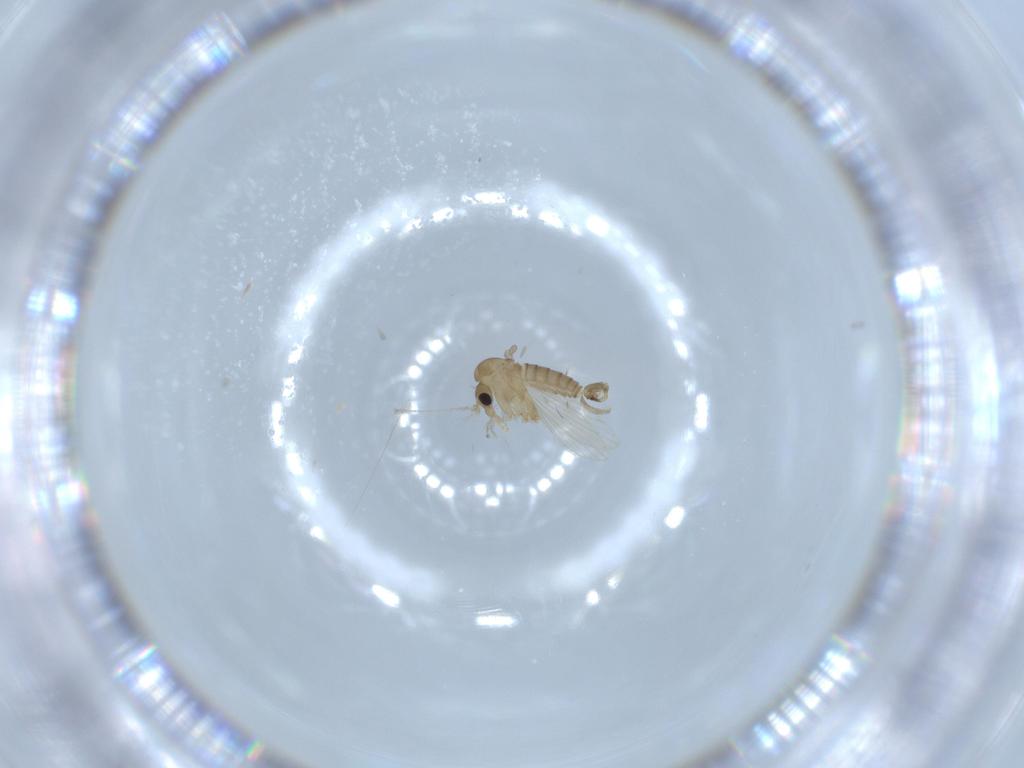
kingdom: Animalia
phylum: Arthropoda
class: Insecta
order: Diptera
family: Psychodidae
